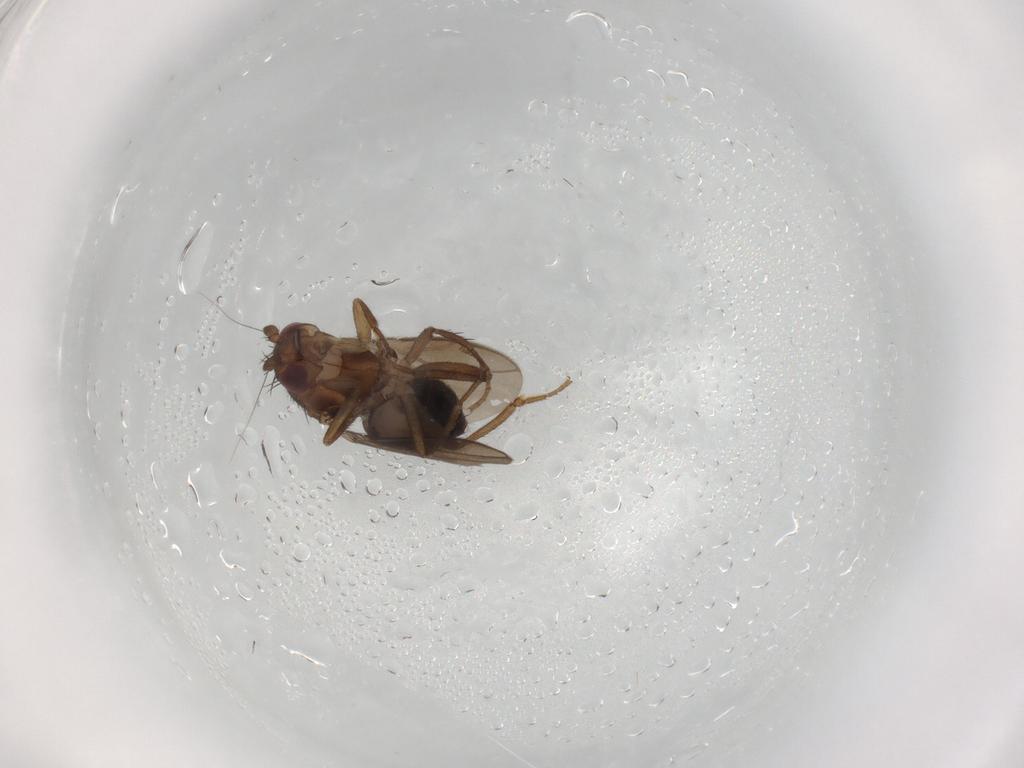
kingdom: Animalia
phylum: Arthropoda
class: Insecta
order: Diptera
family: Sphaeroceridae
